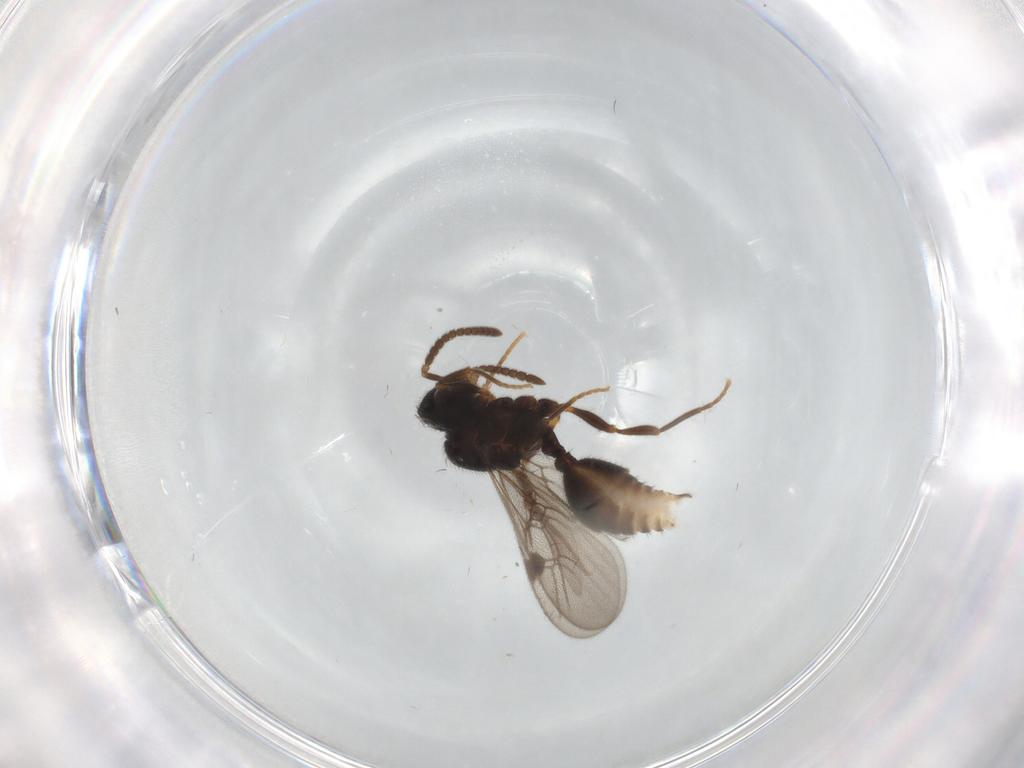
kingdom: Animalia
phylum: Arthropoda
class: Insecta
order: Hymenoptera
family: Formicidae
